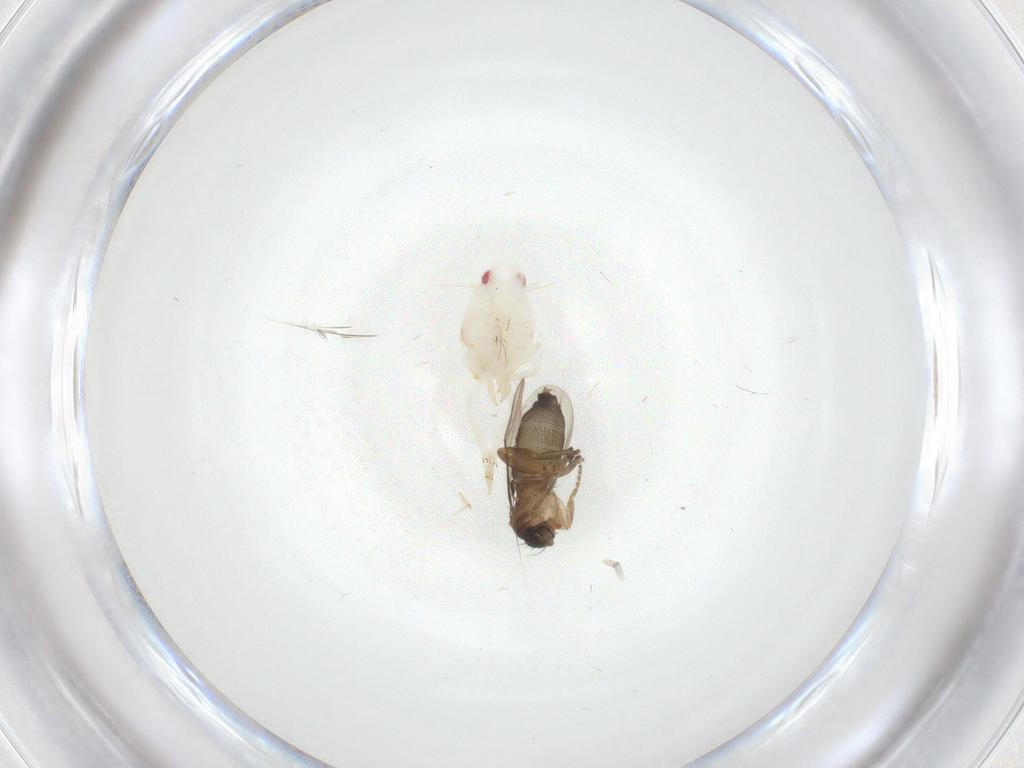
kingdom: Animalia
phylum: Arthropoda
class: Insecta
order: Diptera
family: Phoridae
